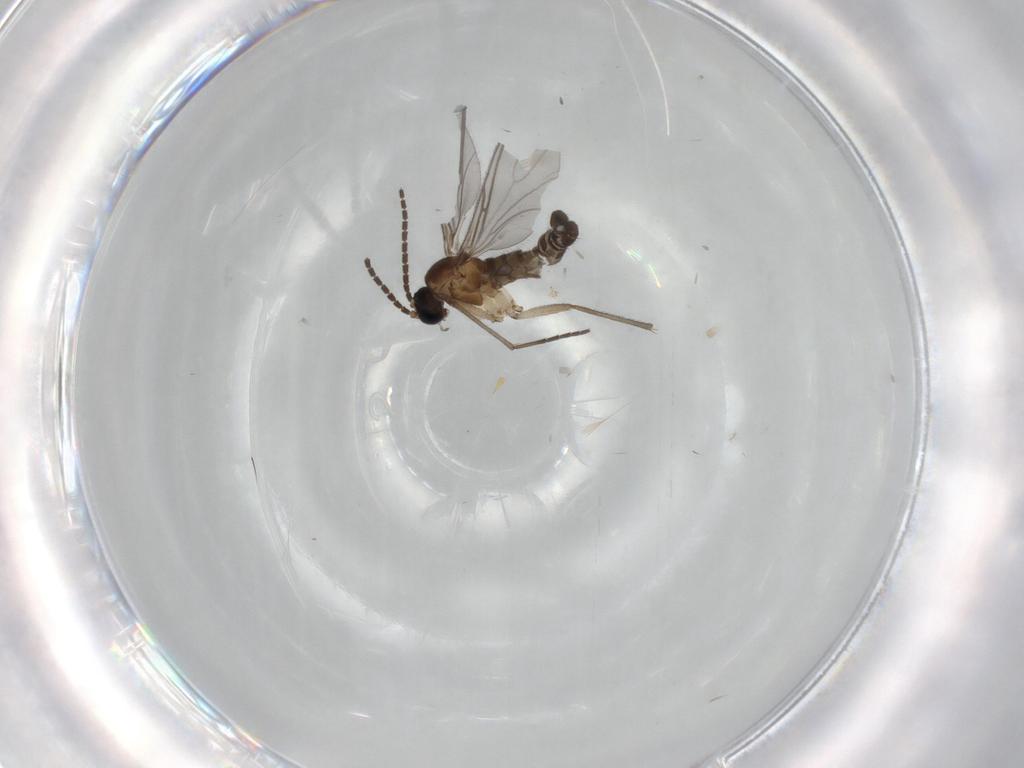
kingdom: Animalia
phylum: Arthropoda
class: Insecta
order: Diptera
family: Sciaridae
